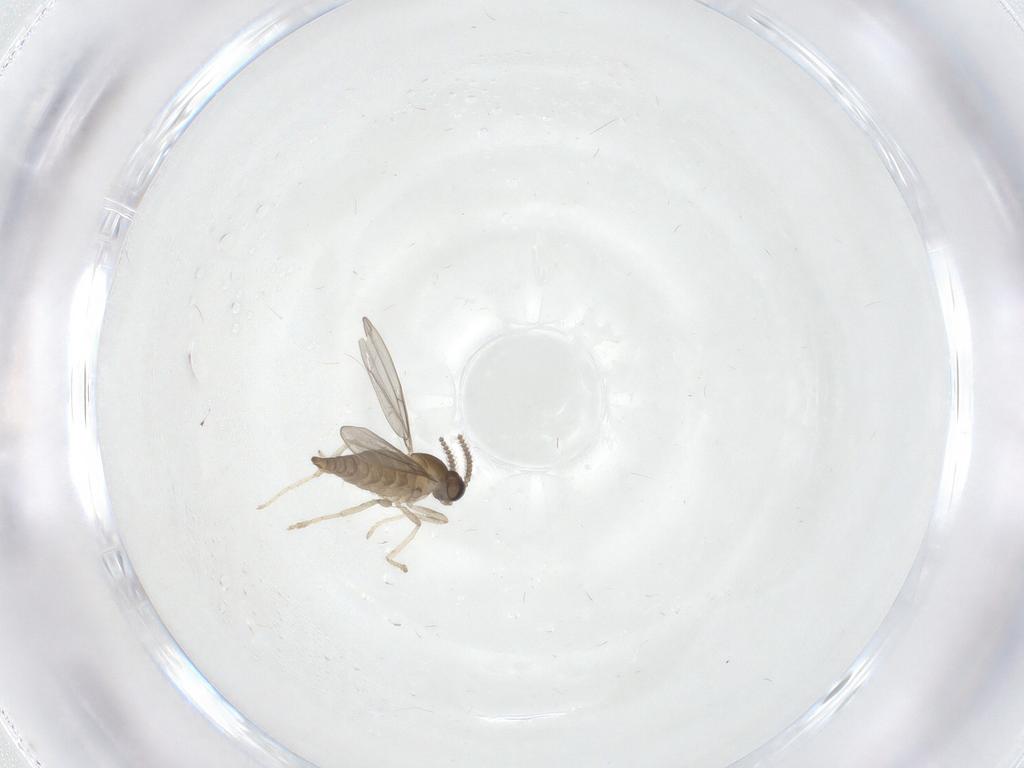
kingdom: Animalia
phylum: Arthropoda
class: Insecta
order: Diptera
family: Cecidomyiidae
